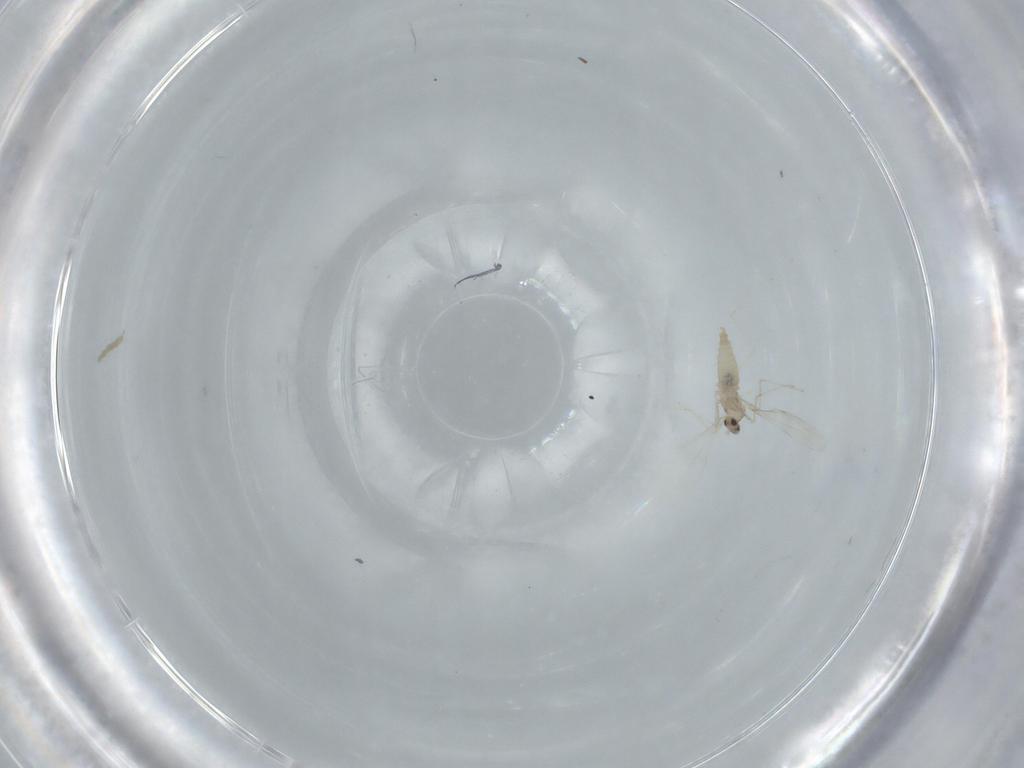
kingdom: Animalia
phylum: Arthropoda
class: Insecta
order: Diptera
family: Cecidomyiidae
